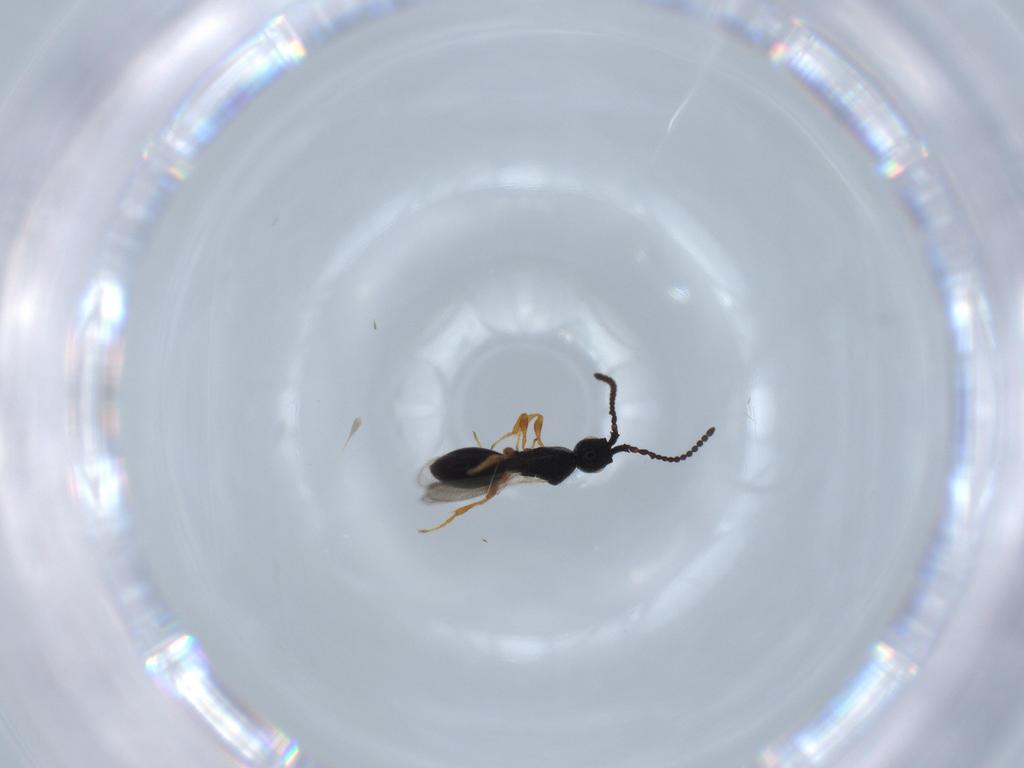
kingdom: Animalia
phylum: Arthropoda
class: Insecta
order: Hymenoptera
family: Diapriidae
